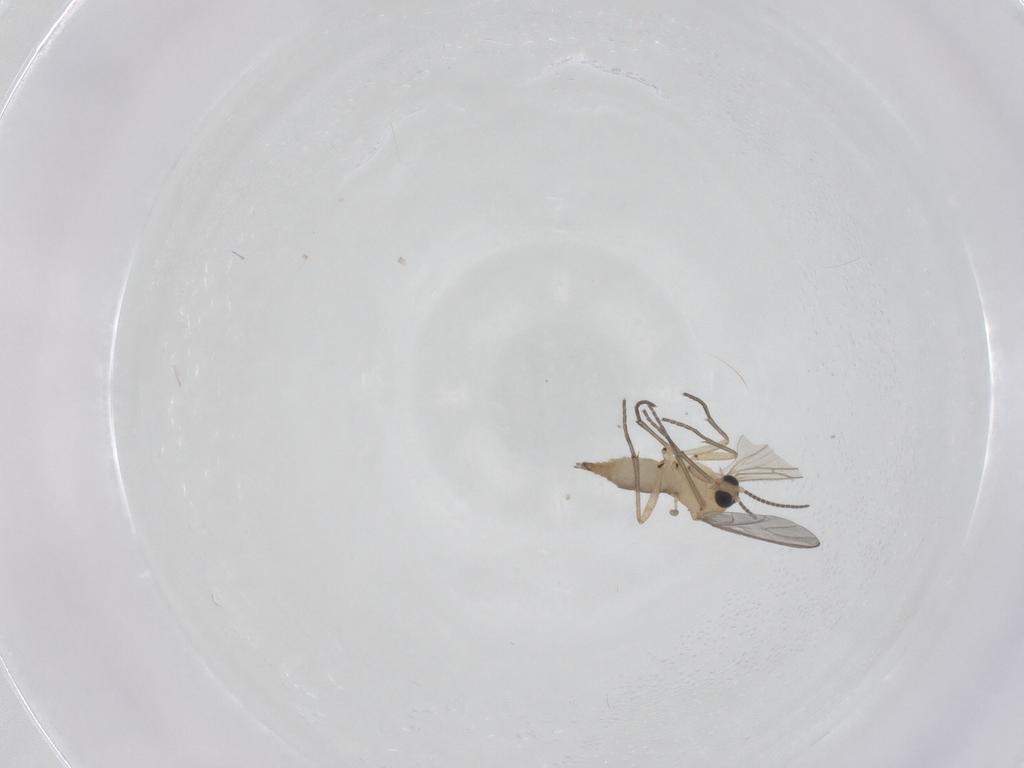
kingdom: Animalia
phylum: Arthropoda
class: Insecta
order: Diptera
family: Sciaridae
